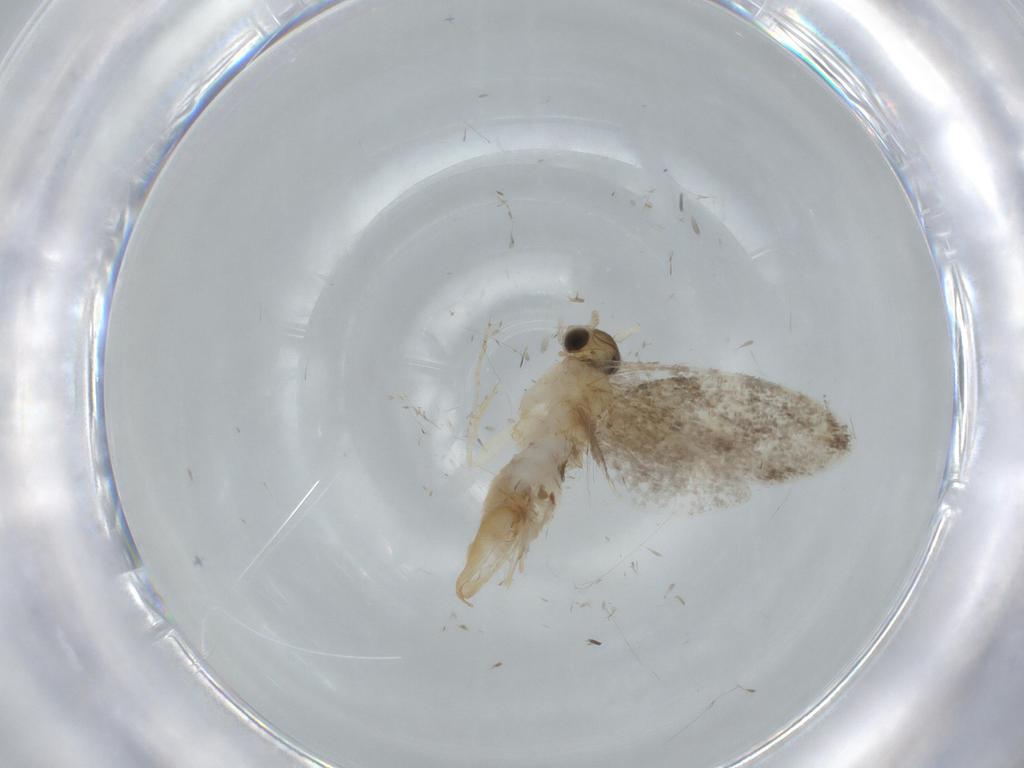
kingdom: Animalia
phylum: Arthropoda
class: Insecta
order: Lepidoptera
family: Tineidae
